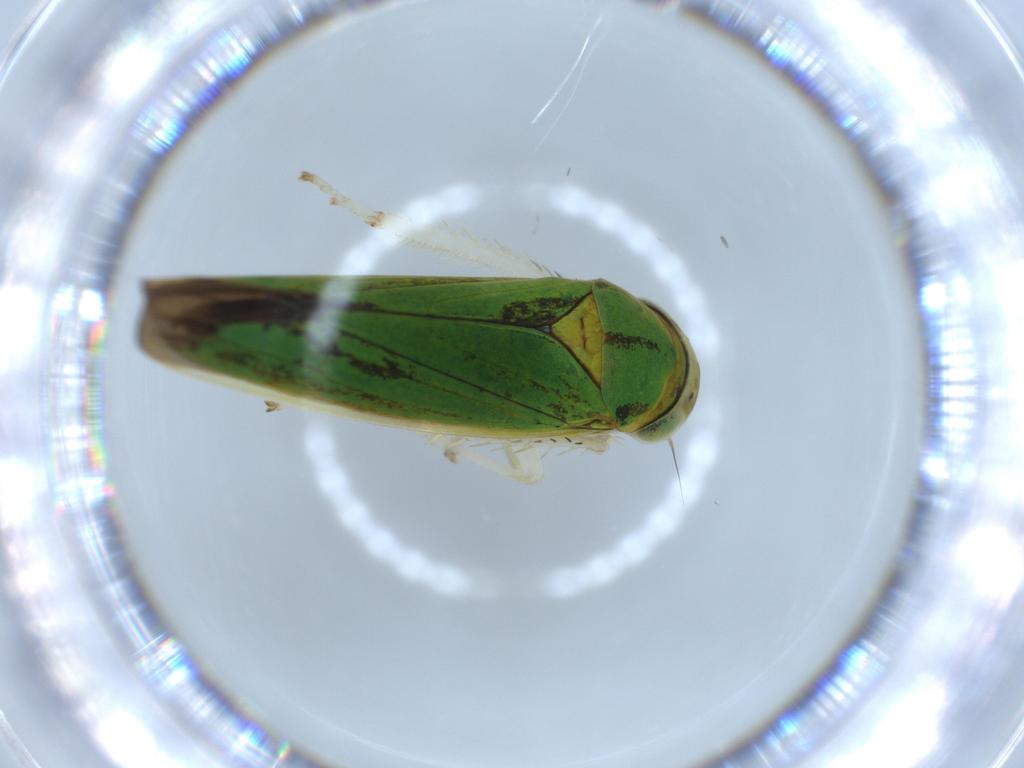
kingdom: Animalia
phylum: Arthropoda
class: Insecta
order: Hemiptera
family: Cicadellidae
